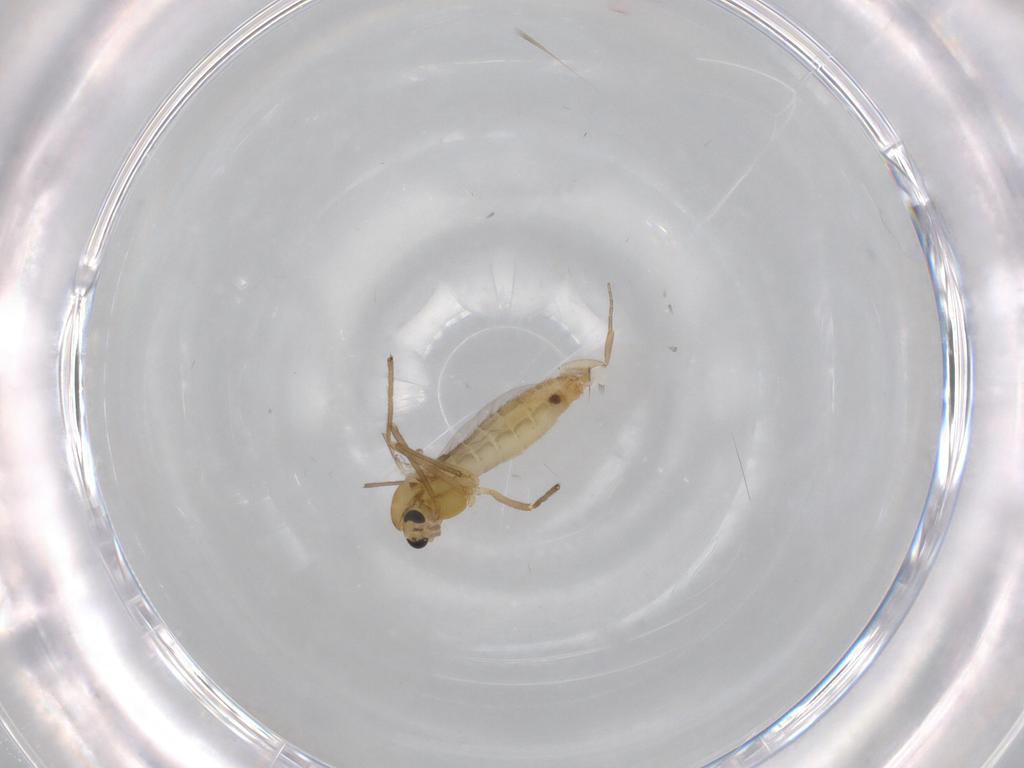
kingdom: Animalia
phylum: Arthropoda
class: Insecta
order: Diptera
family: Phoridae
